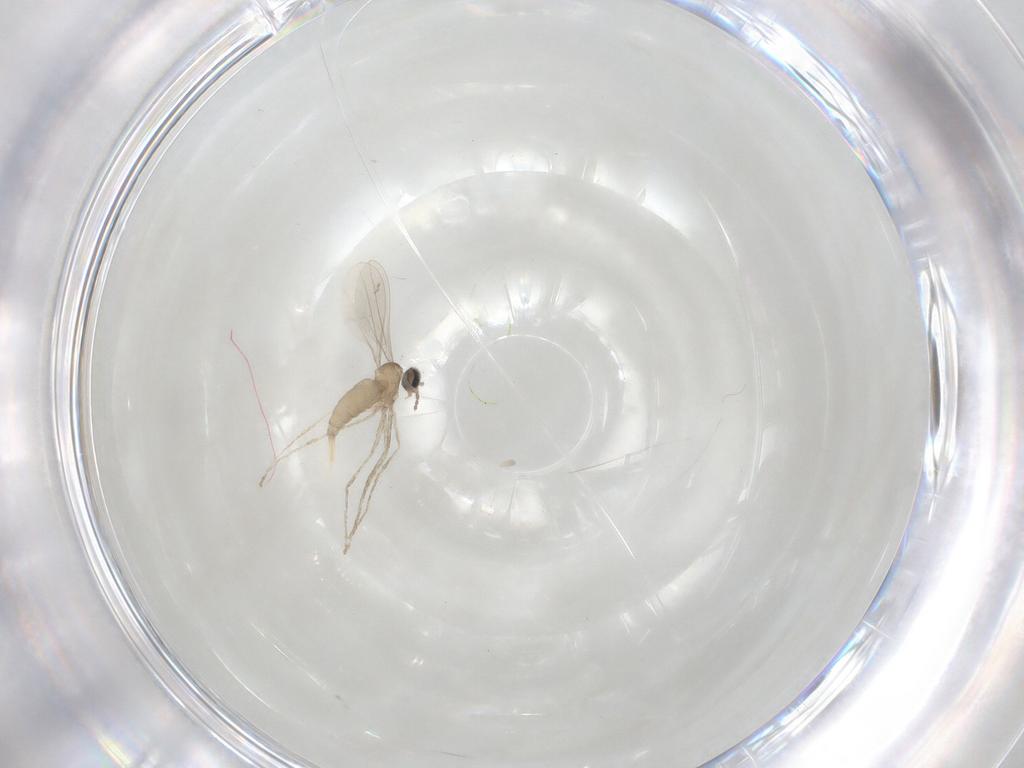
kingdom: Animalia
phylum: Arthropoda
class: Insecta
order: Diptera
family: Cecidomyiidae
